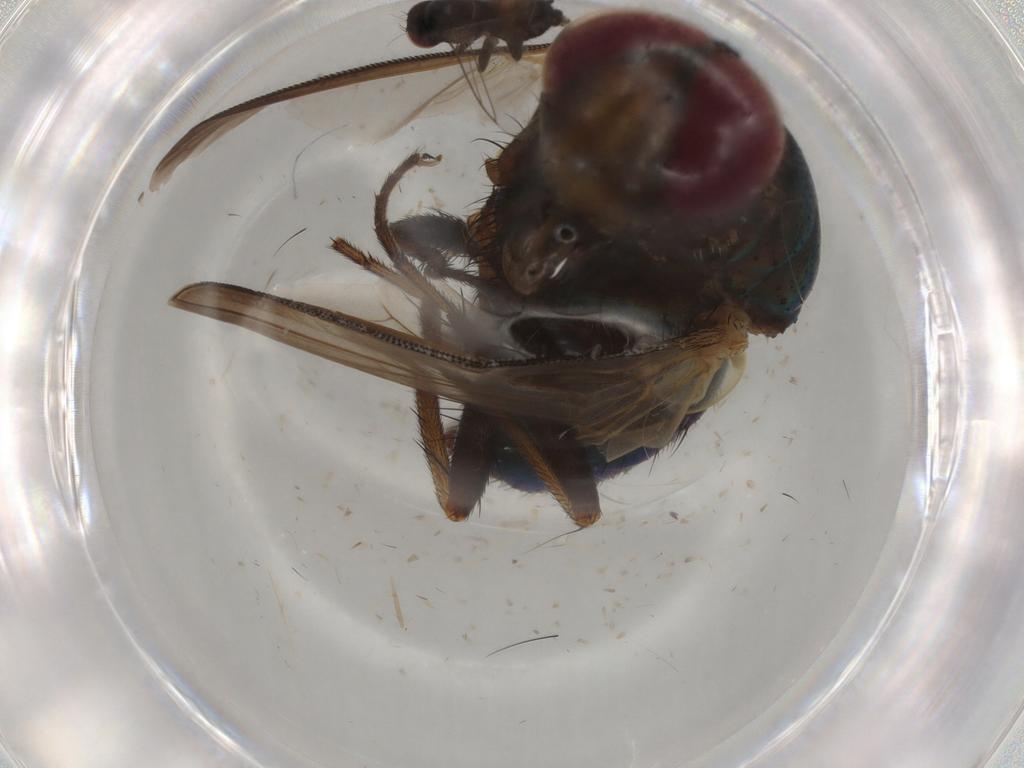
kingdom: Animalia
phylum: Arthropoda
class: Insecta
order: Diptera
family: Calliphoridae
